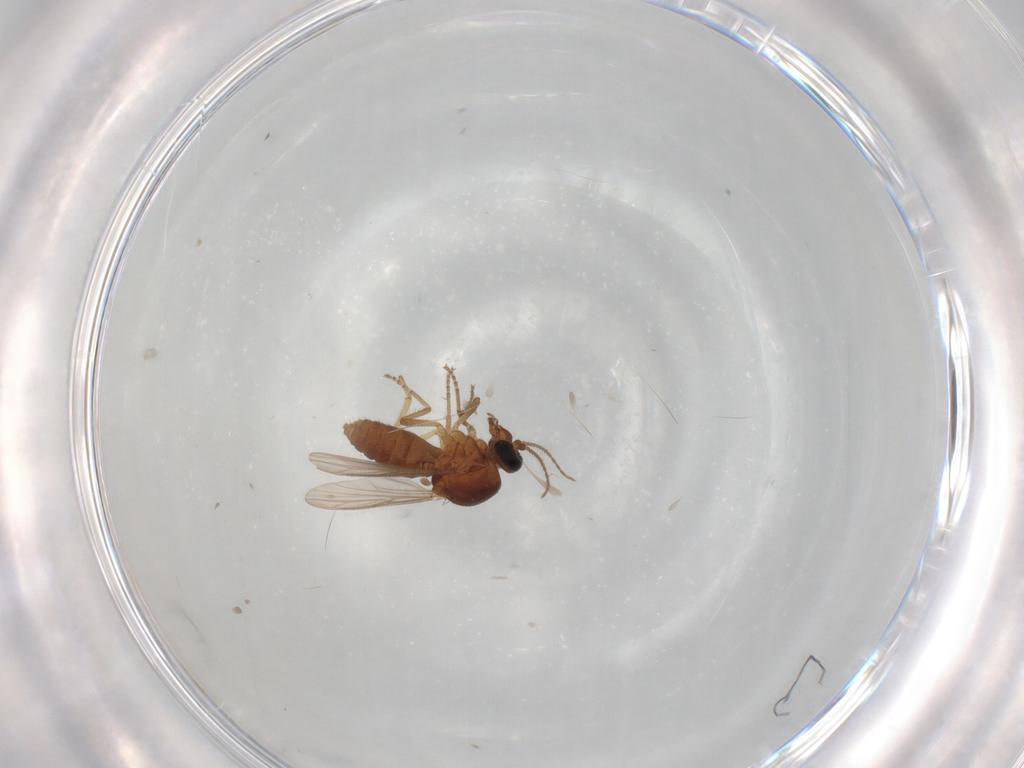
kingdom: Animalia
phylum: Arthropoda
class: Insecta
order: Diptera
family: Ceratopogonidae
